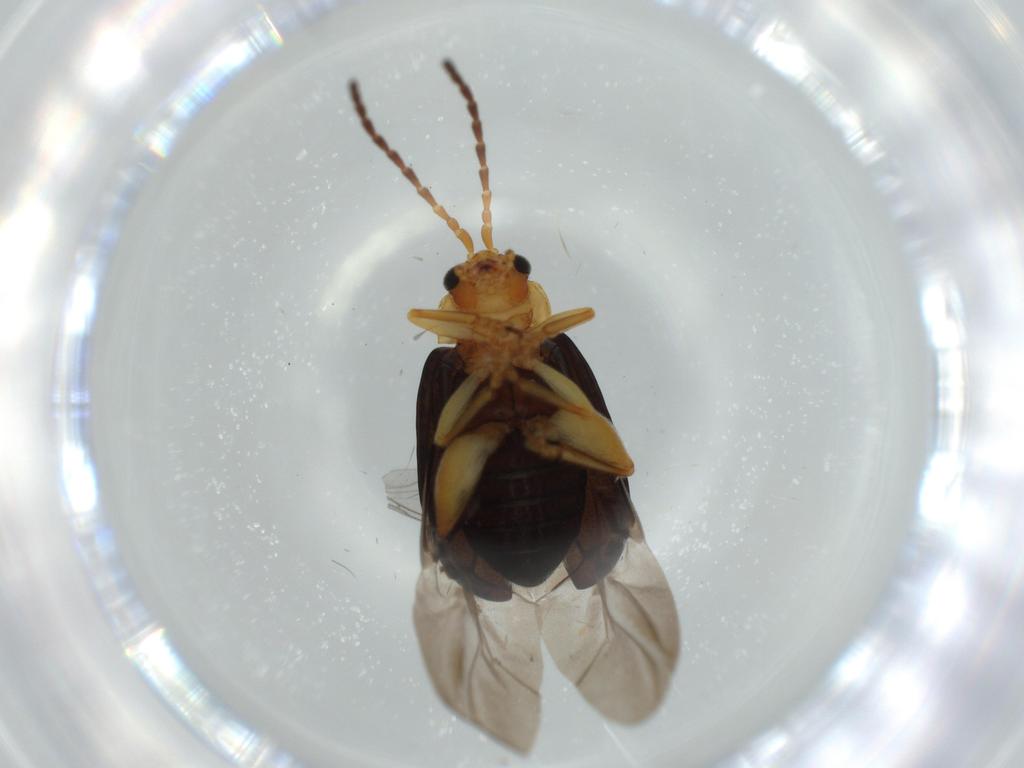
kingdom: Animalia
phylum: Arthropoda
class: Insecta
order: Coleoptera
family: Chrysomelidae
